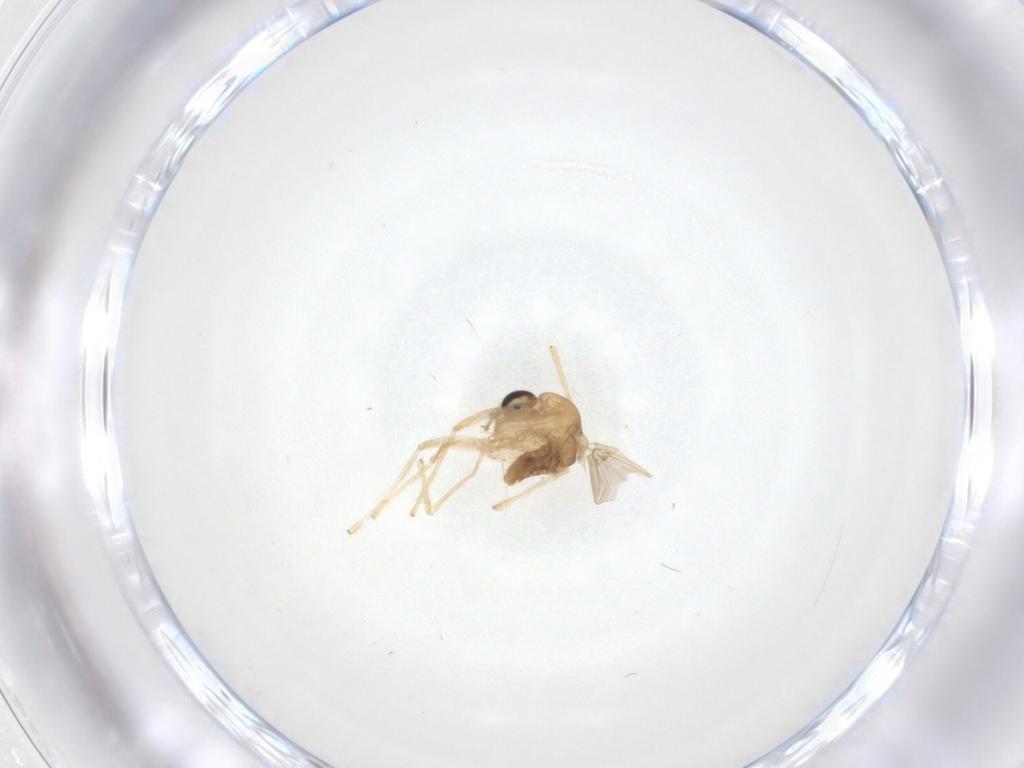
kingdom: Animalia
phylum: Arthropoda
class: Insecta
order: Diptera
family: Chironomidae
